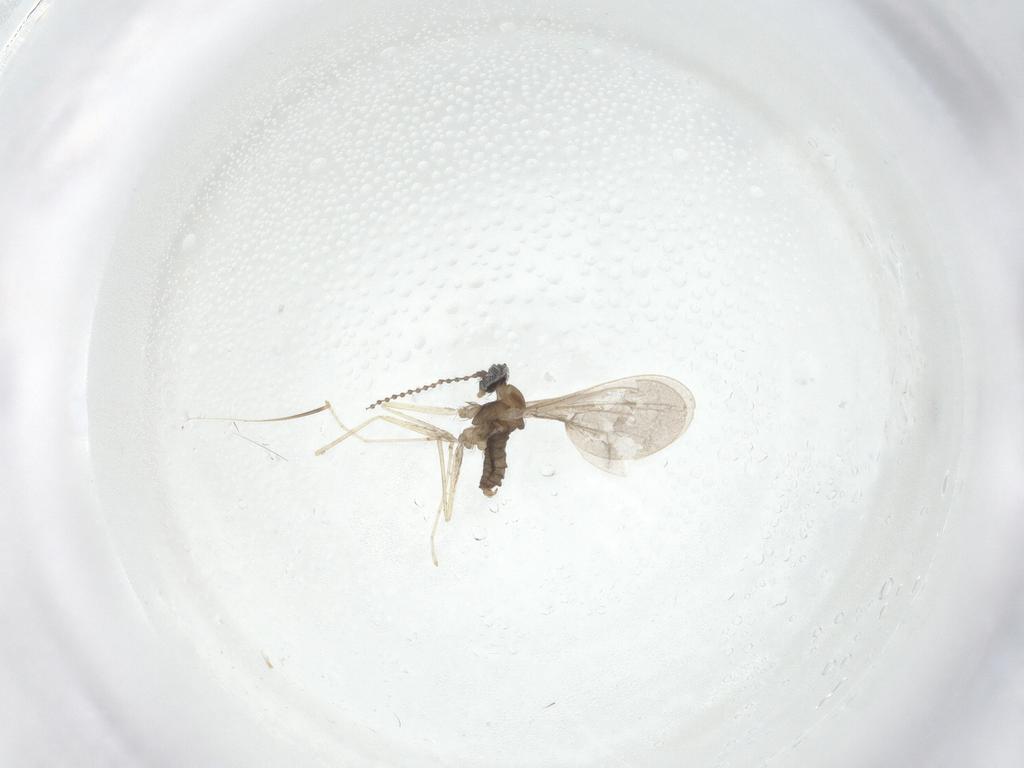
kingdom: Animalia
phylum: Arthropoda
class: Insecta
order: Diptera
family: Cecidomyiidae
